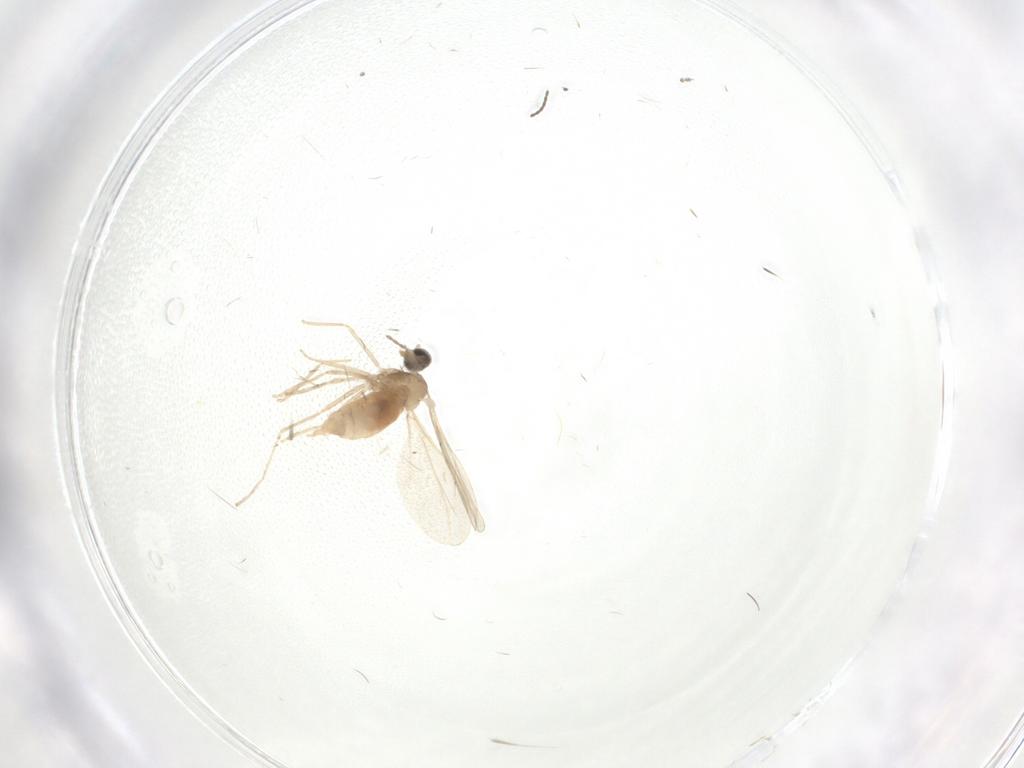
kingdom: Animalia
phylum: Arthropoda
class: Insecta
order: Diptera
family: Chironomidae
